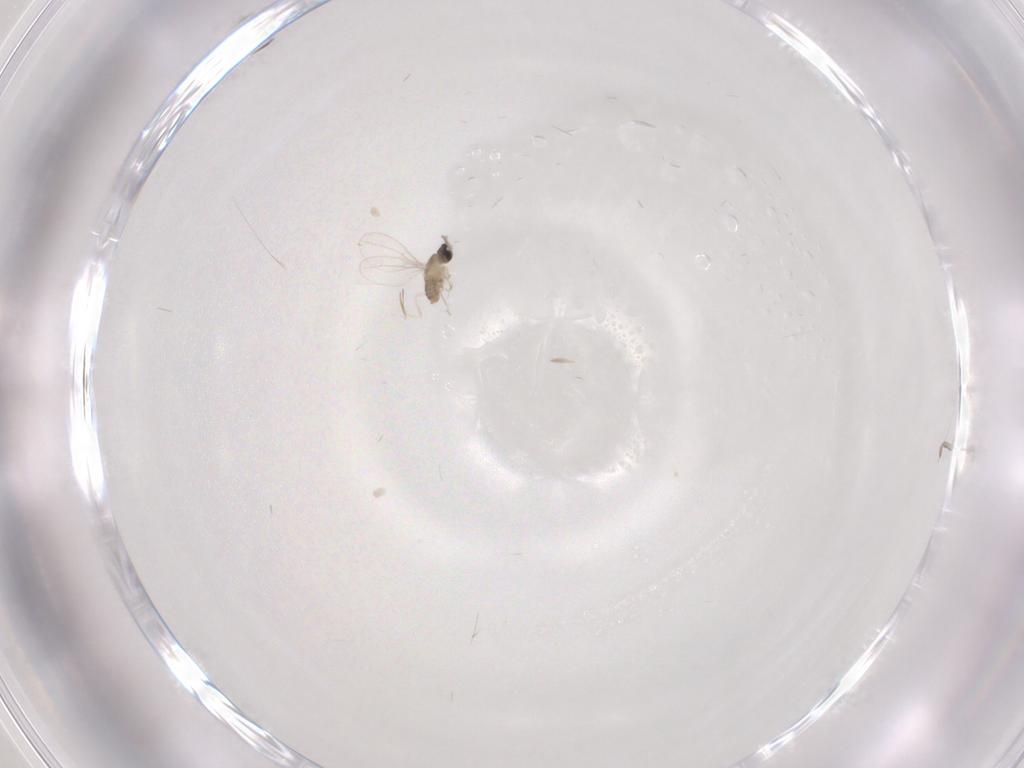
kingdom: Animalia
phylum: Arthropoda
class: Insecta
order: Diptera
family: Cecidomyiidae
